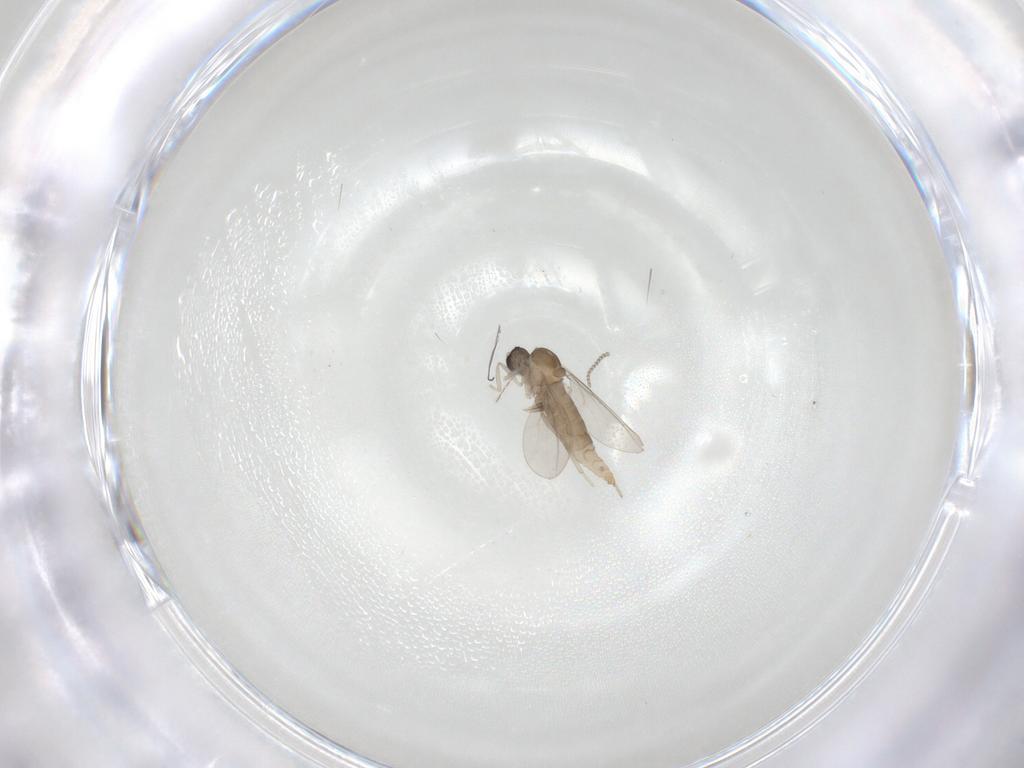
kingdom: Animalia
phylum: Arthropoda
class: Insecta
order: Diptera
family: Cecidomyiidae
